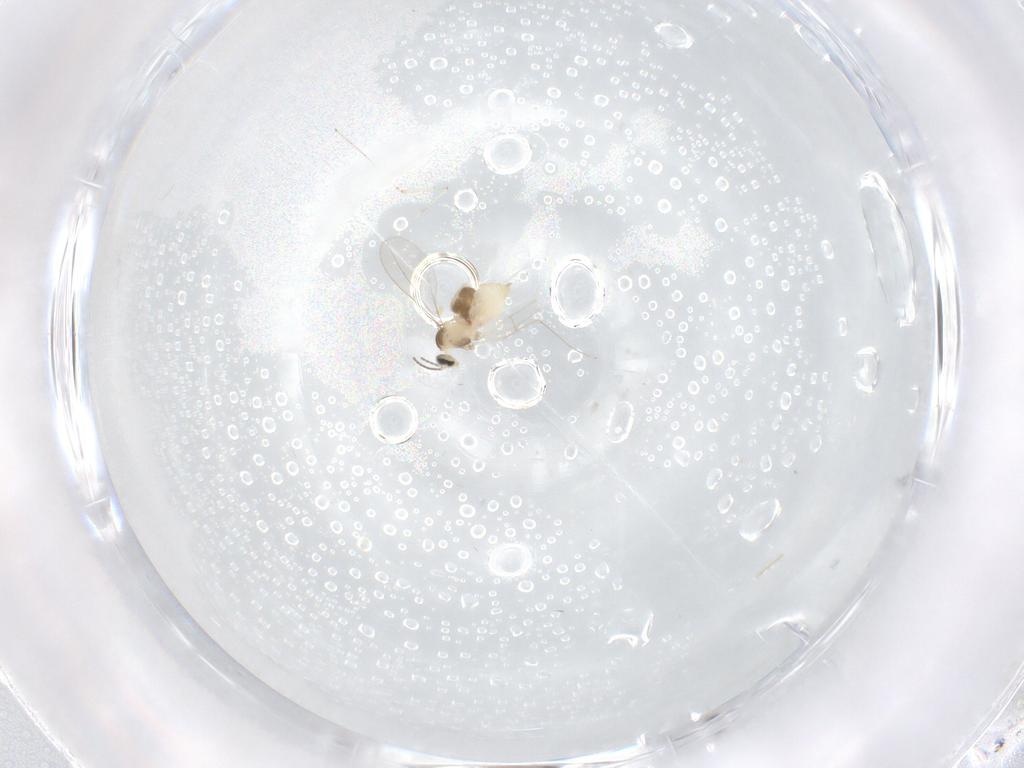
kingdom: Animalia
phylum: Arthropoda
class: Insecta
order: Diptera
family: Cecidomyiidae
